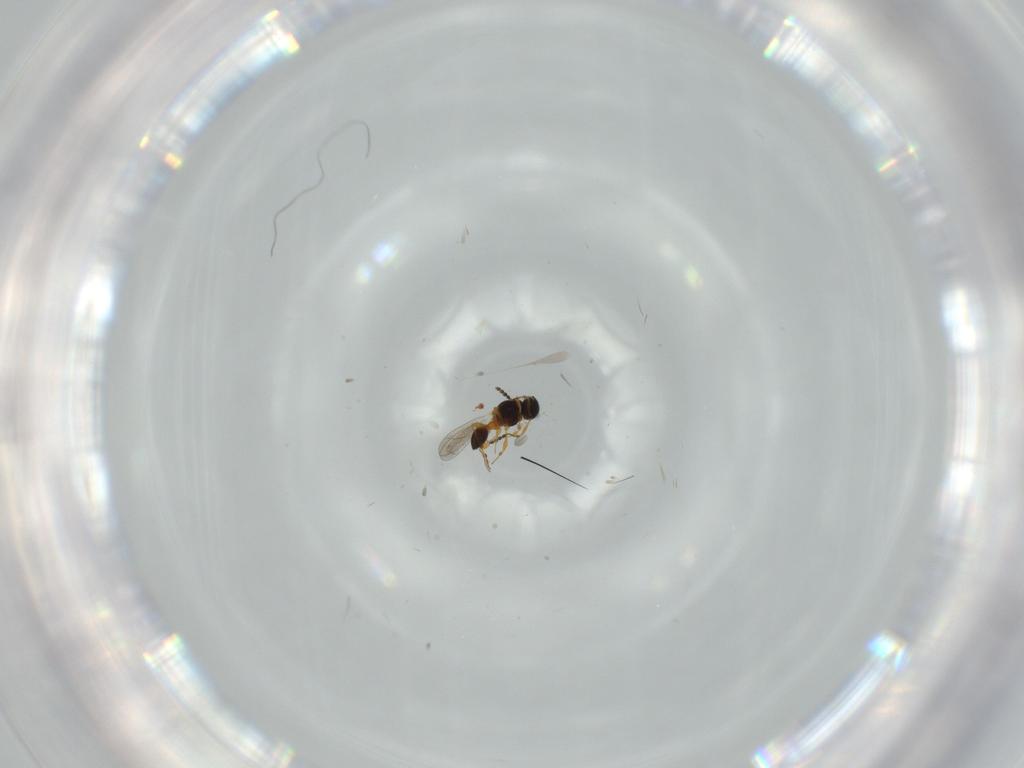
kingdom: Animalia
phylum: Arthropoda
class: Insecta
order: Hymenoptera
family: Platygastridae
